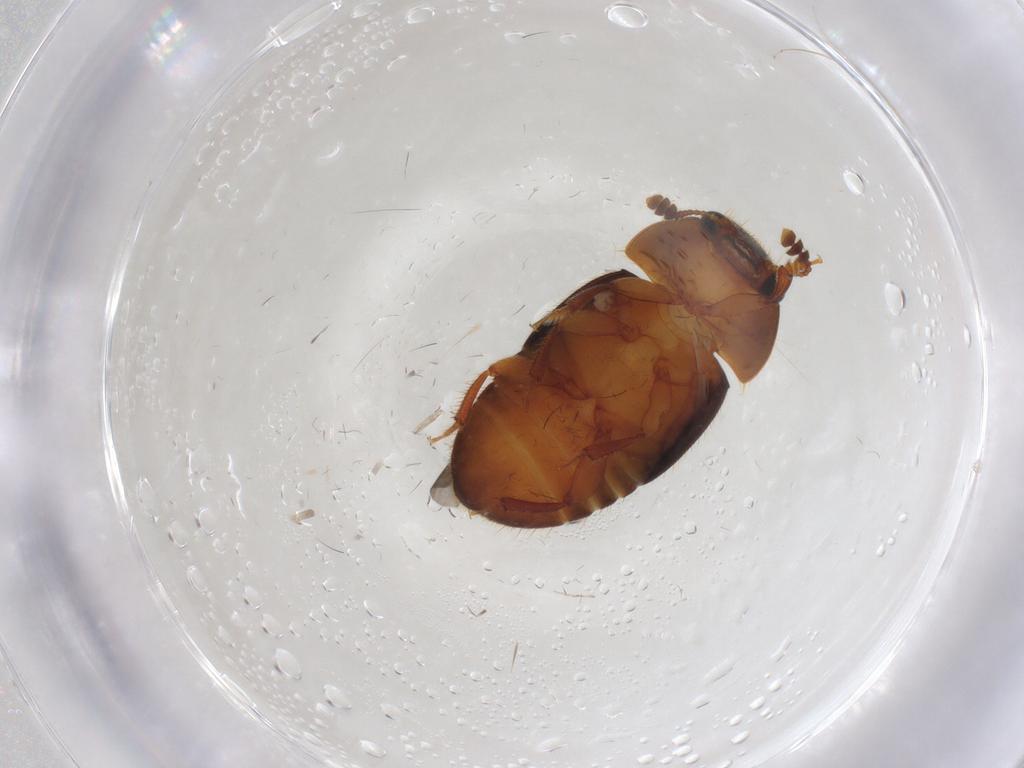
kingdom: Animalia
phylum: Arthropoda
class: Insecta
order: Coleoptera
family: Nitidulidae
